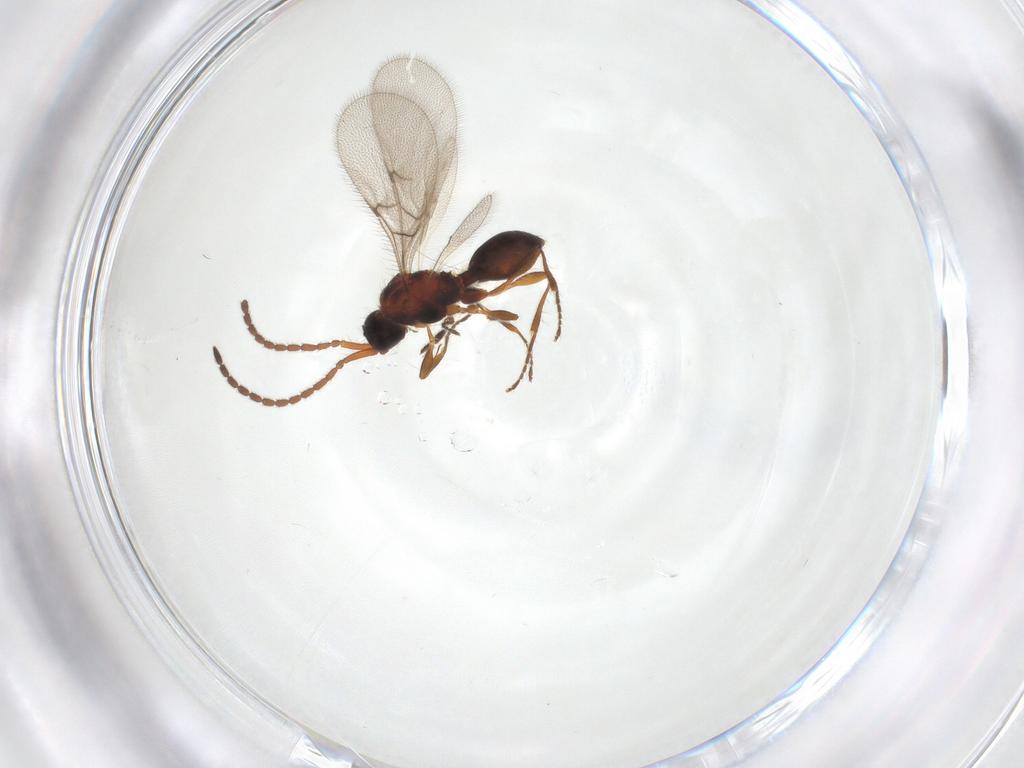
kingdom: Animalia
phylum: Arthropoda
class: Insecta
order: Hymenoptera
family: Diapriidae
